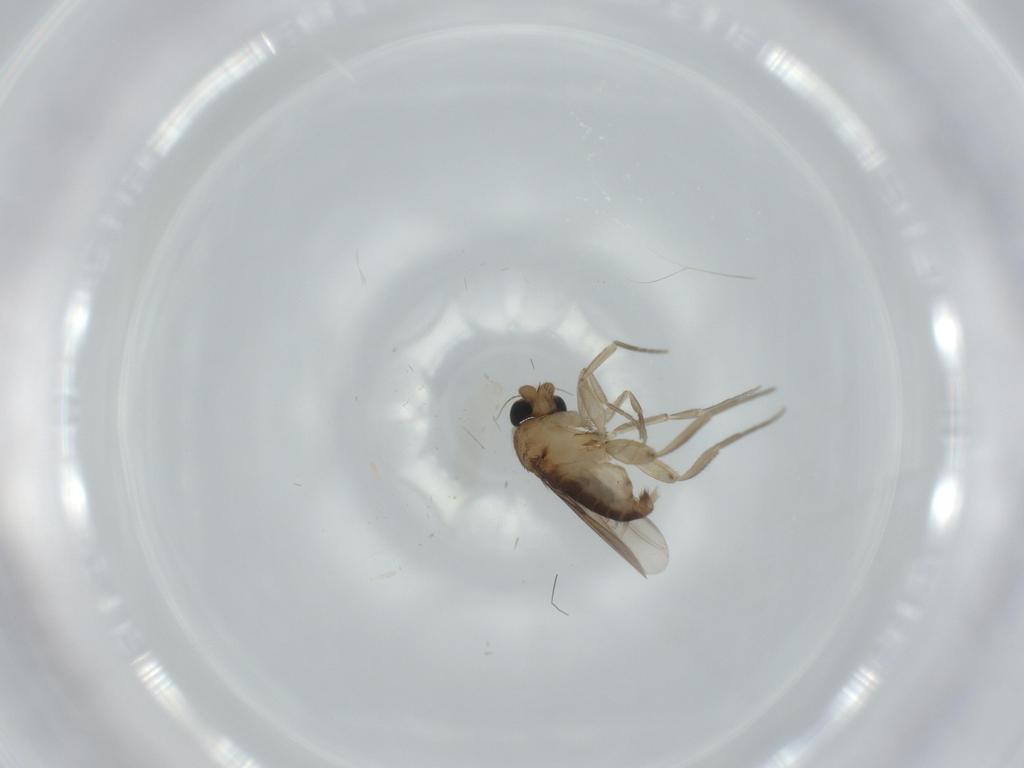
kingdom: Animalia
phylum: Arthropoda
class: Insecta
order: Diptera
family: Phoridae
